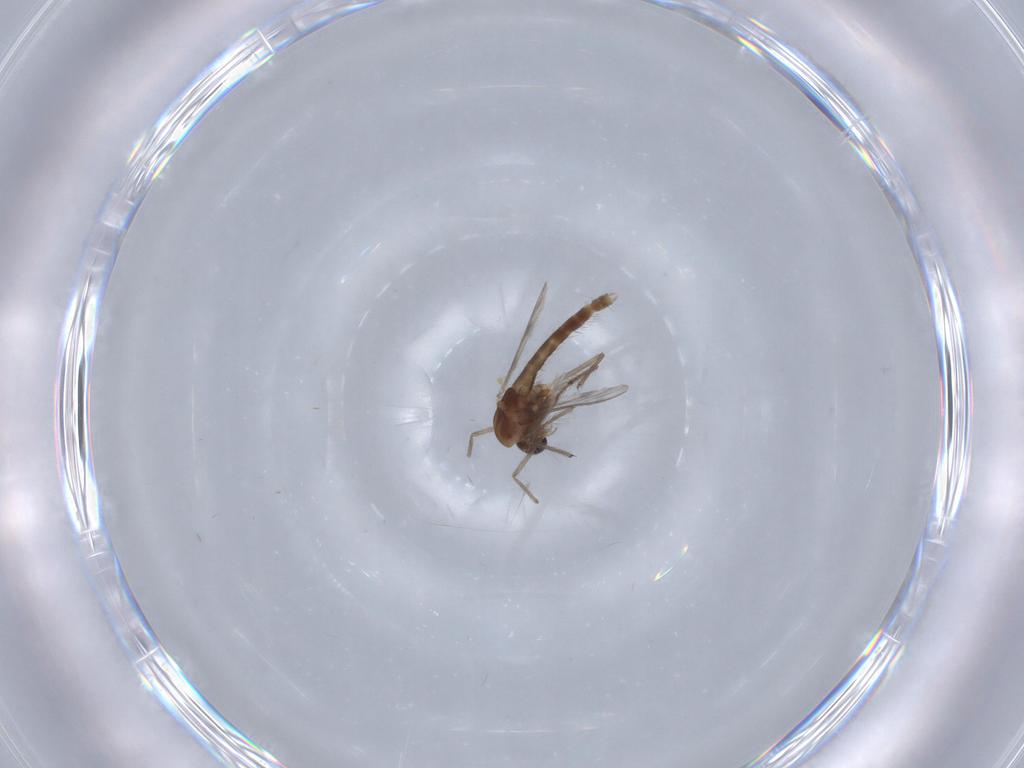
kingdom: Animalia
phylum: Arthropoda
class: Insecta
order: Diptera
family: Chironomidae
